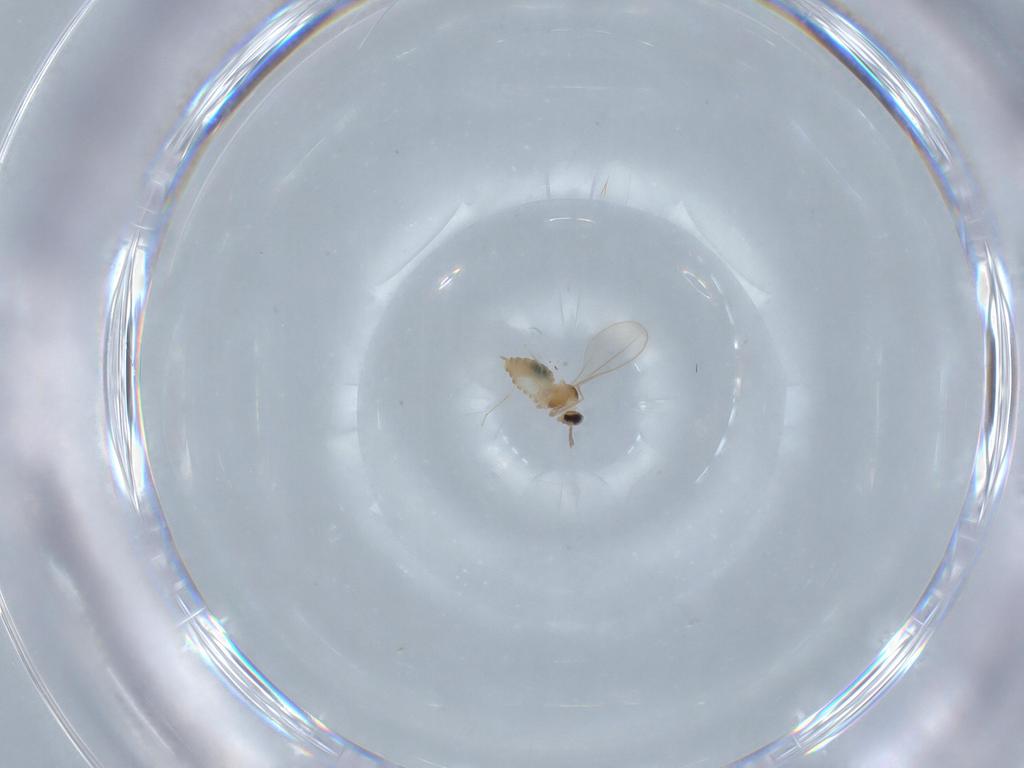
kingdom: Animalia
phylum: Arthropoda
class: Insecta
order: Diptera
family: Cecidomyiidae
